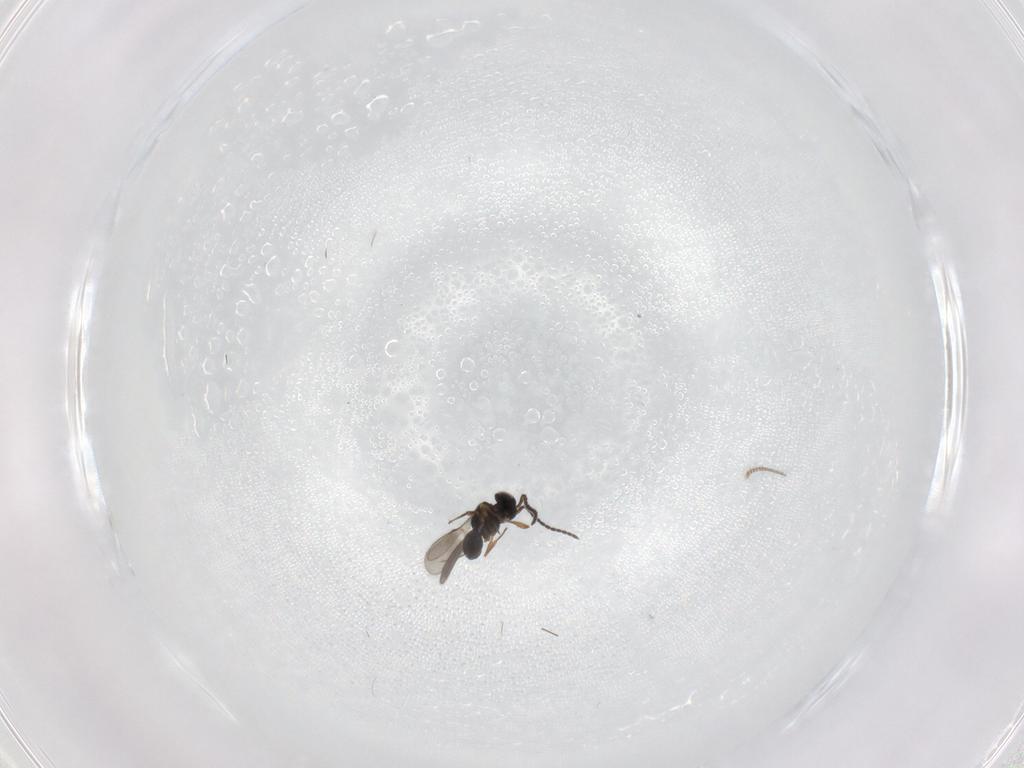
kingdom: Animalia
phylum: Arthropoda
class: Insecta
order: Hymenoptera
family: Scelionidae
